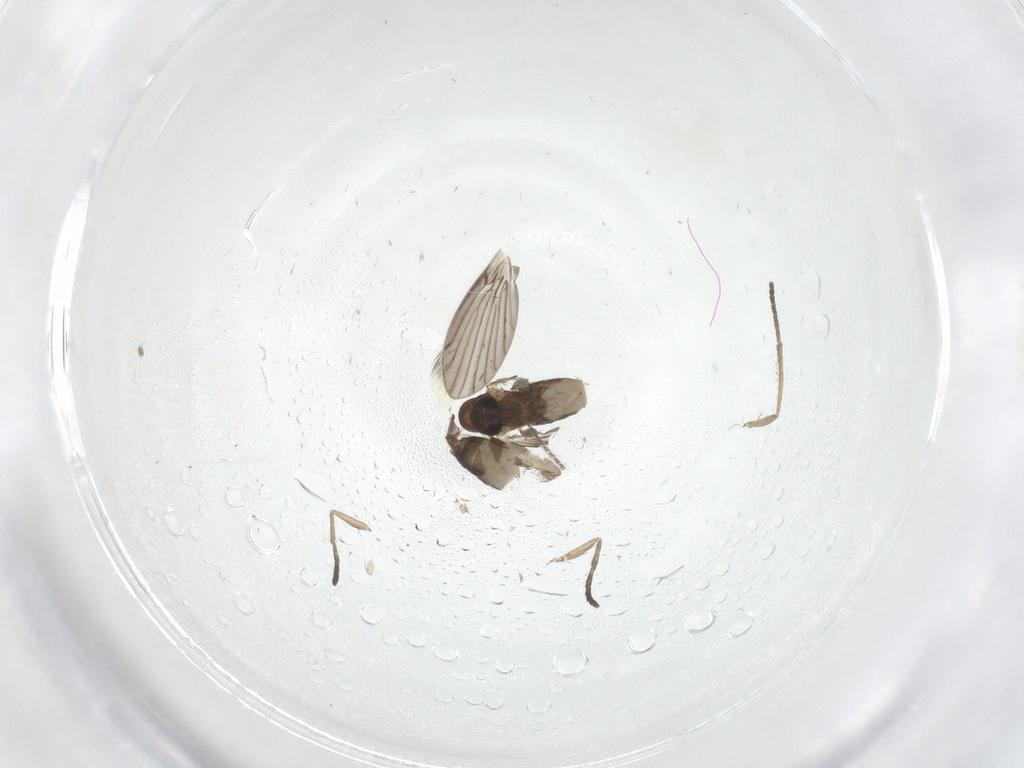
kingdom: Animalia
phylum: Arthropoda
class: Insecta
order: Diptera
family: Psychodidae
